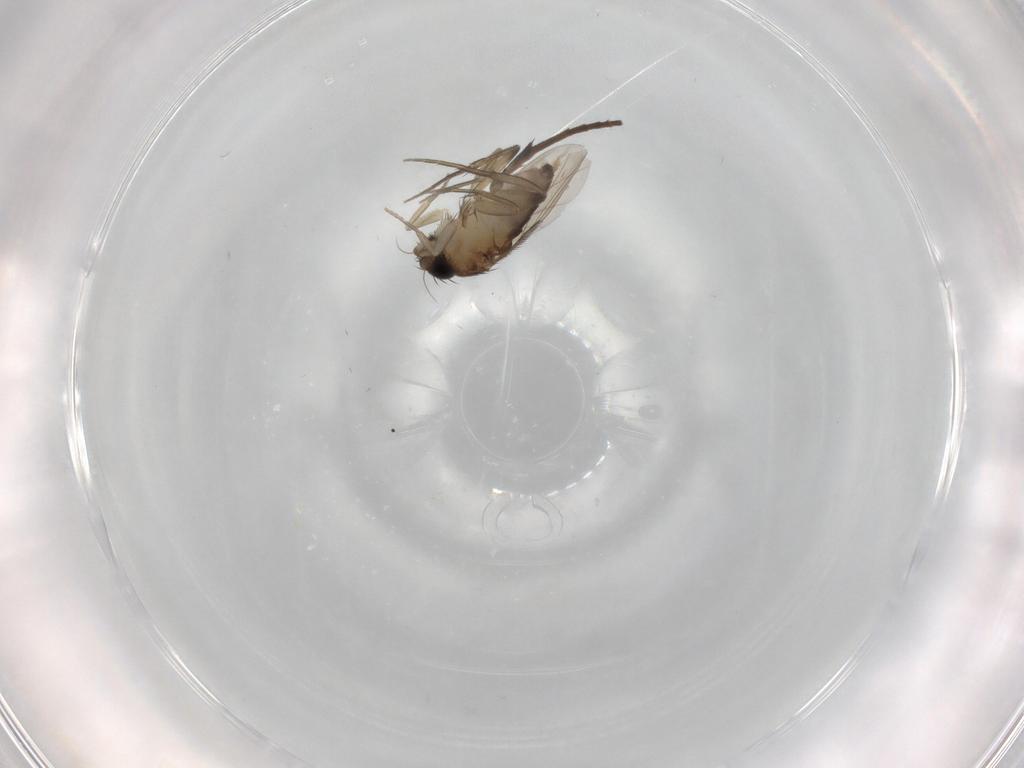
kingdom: Animalia
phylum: Arthropoda
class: Insecta
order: Diptera
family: Phoridae
